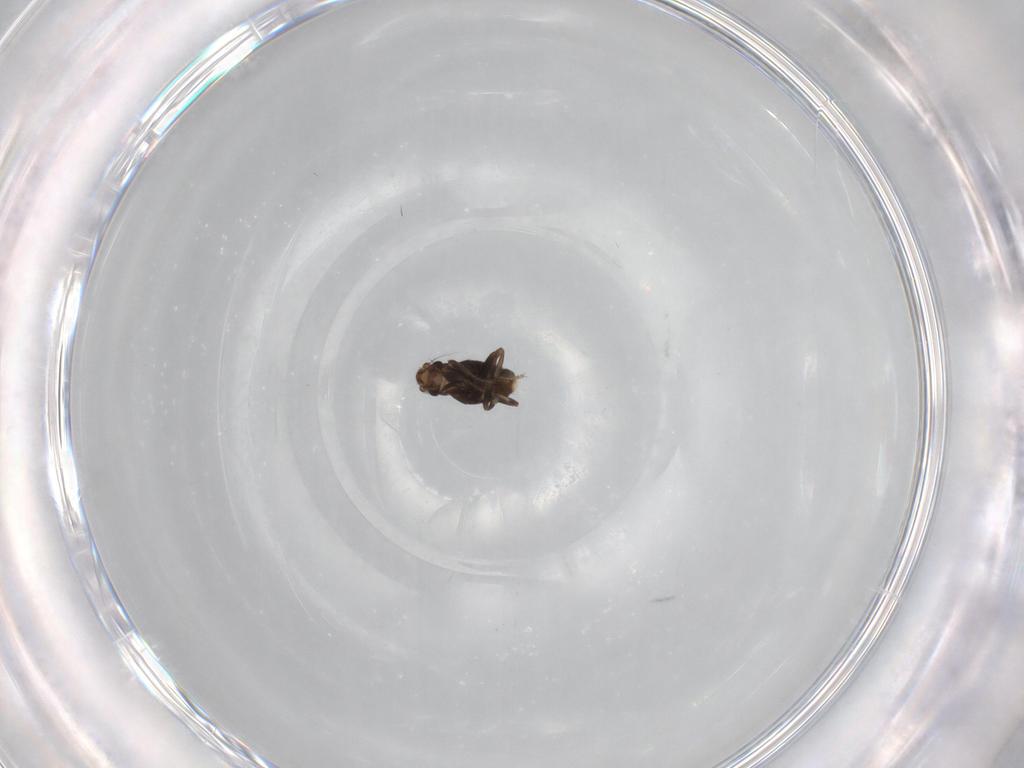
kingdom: Animalia
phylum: Arthropoda
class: Insecta
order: Diptera
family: Phoridae
